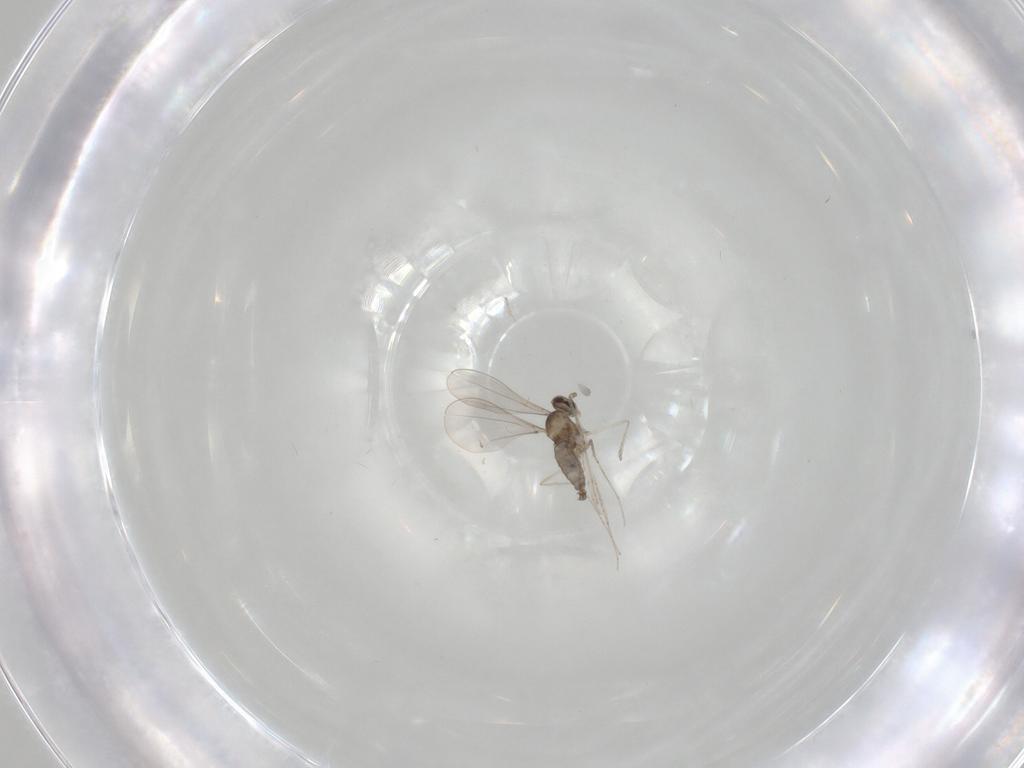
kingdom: Animalia
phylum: Arthropoda
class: Insecta
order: Diptera
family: Cecidomyiidae
